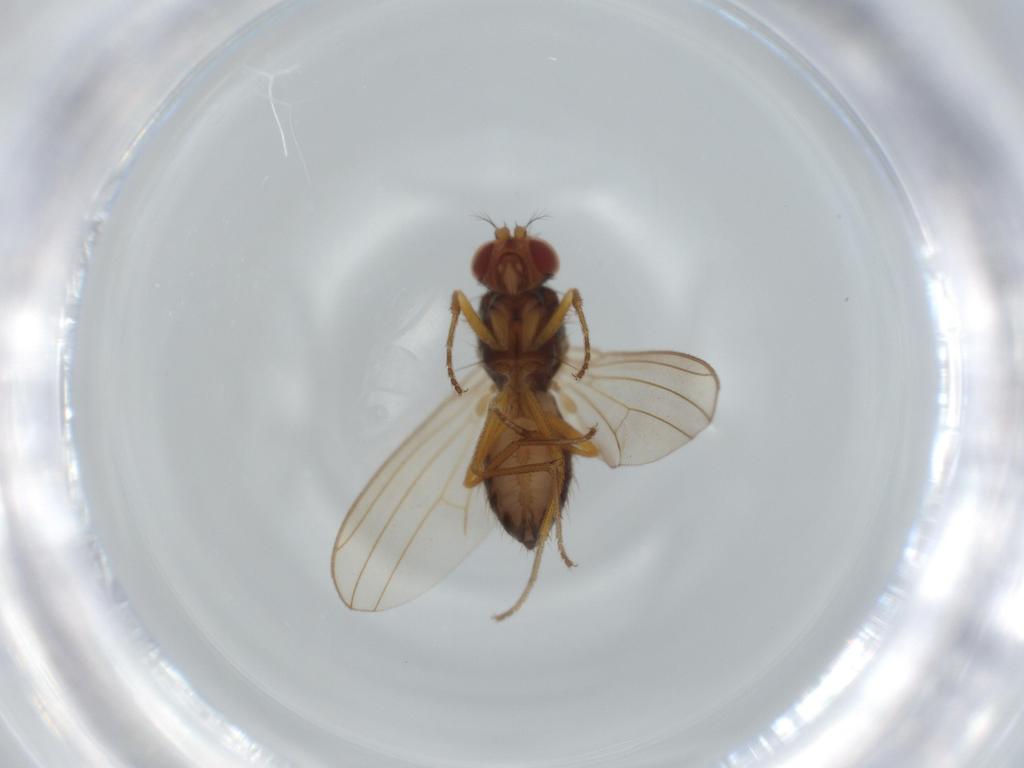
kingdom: Animalia
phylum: Arthropoda
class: Insecta
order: Diptera
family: Drosophilidae
